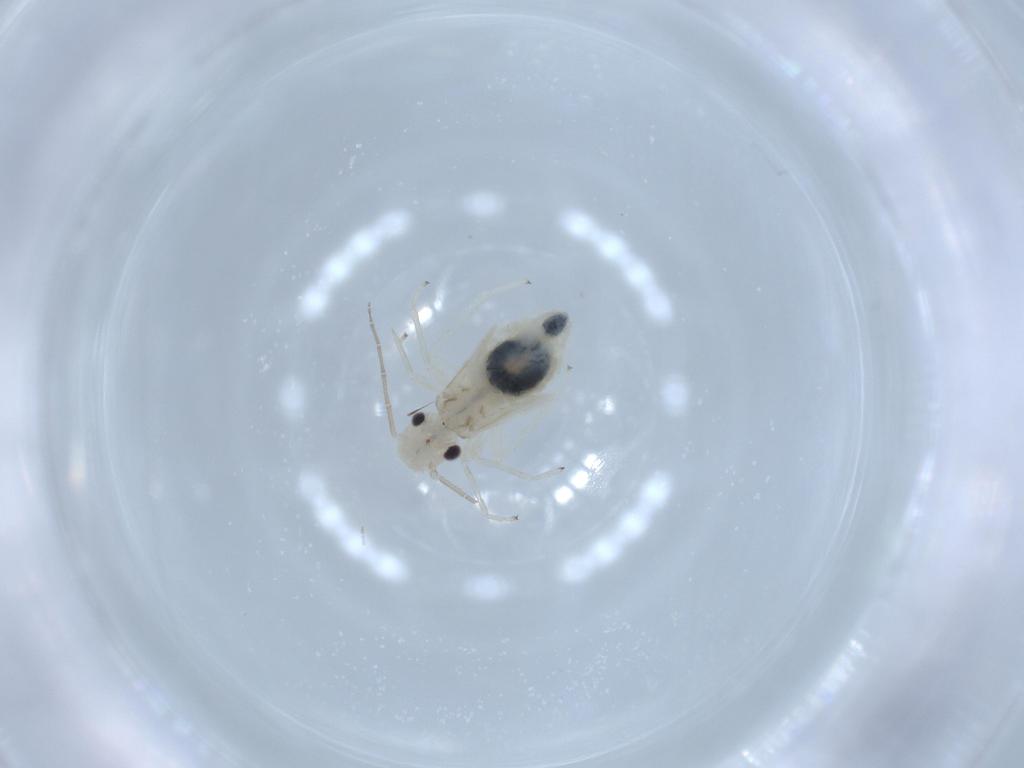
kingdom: Animalia
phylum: Arthropoda
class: Insecta
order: Psocodea
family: Caeciliusidae
